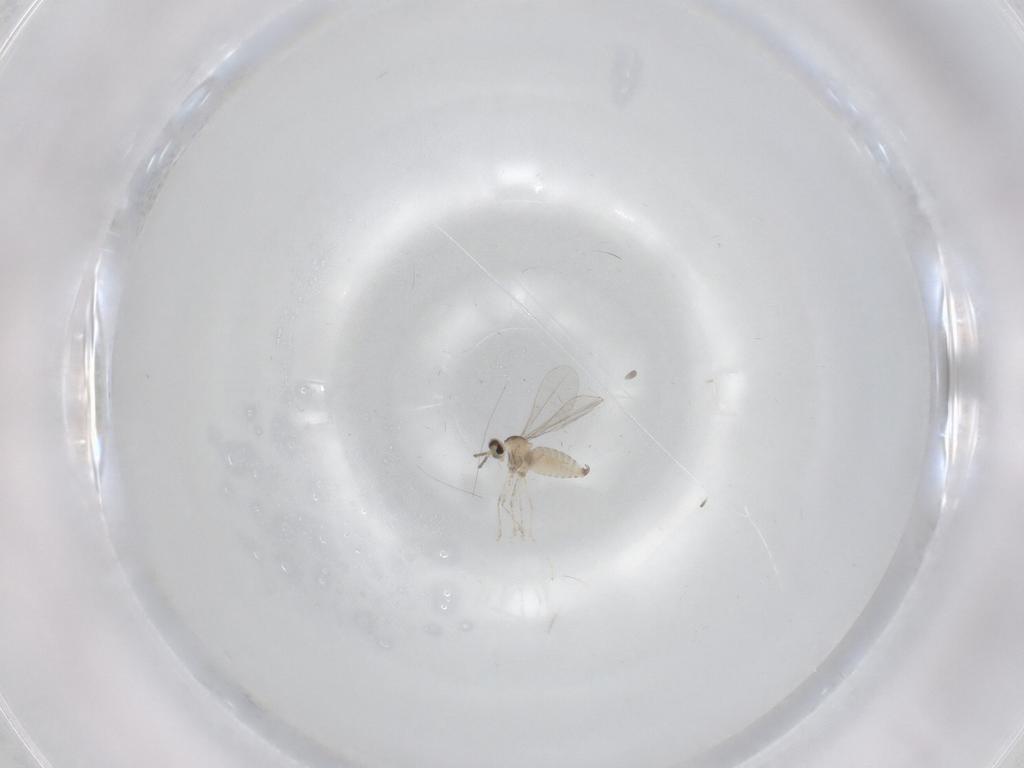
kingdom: Animalia
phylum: Arthropoda
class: Insecta
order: Diptera
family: Cecidomyiidae
